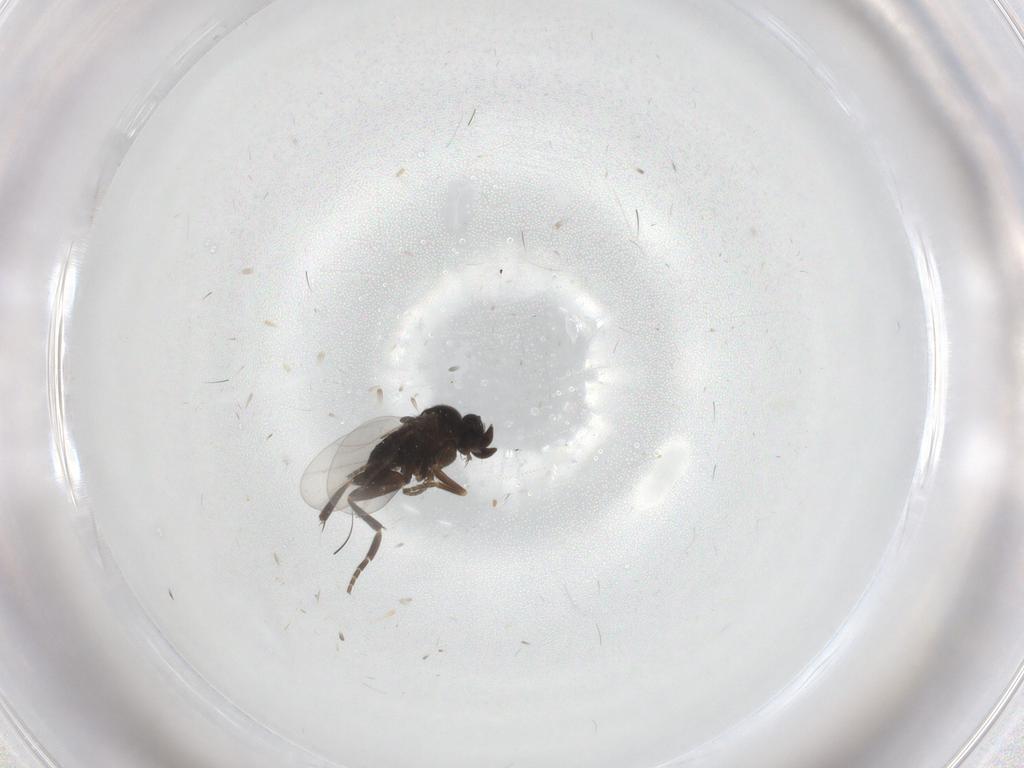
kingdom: Animalia
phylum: Arthropoda
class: Insecta
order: Diptera
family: Phoridae
